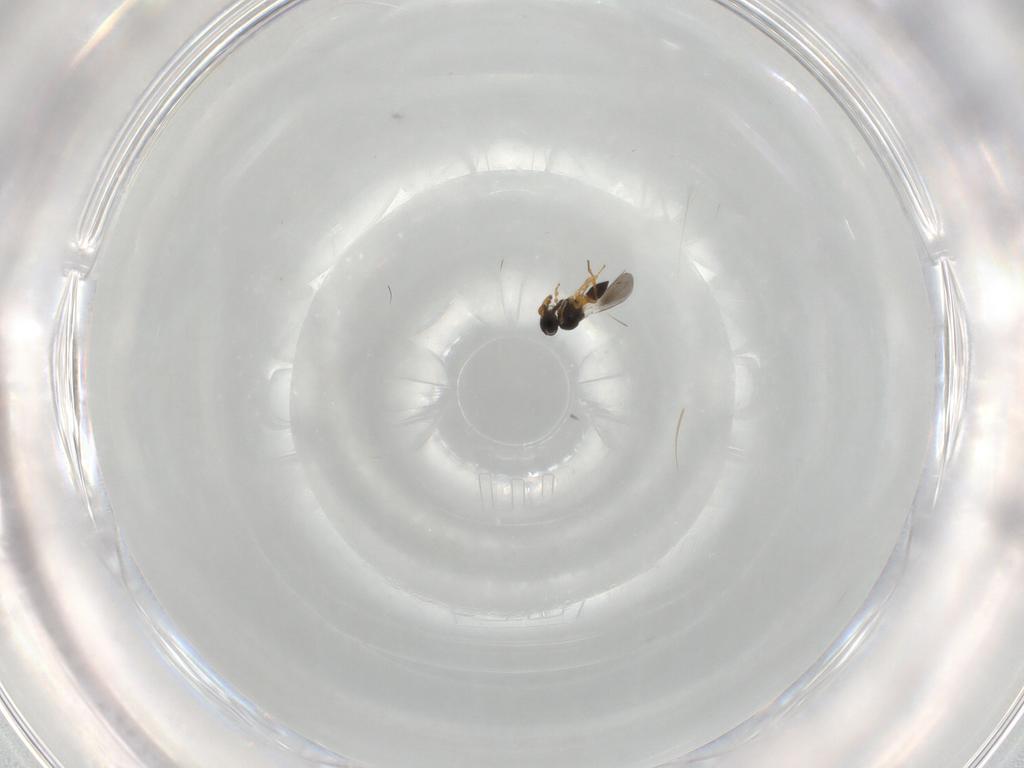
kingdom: Animalia
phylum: Arthropoda
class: Insecta
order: Hymenoptera
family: Platygastridae
